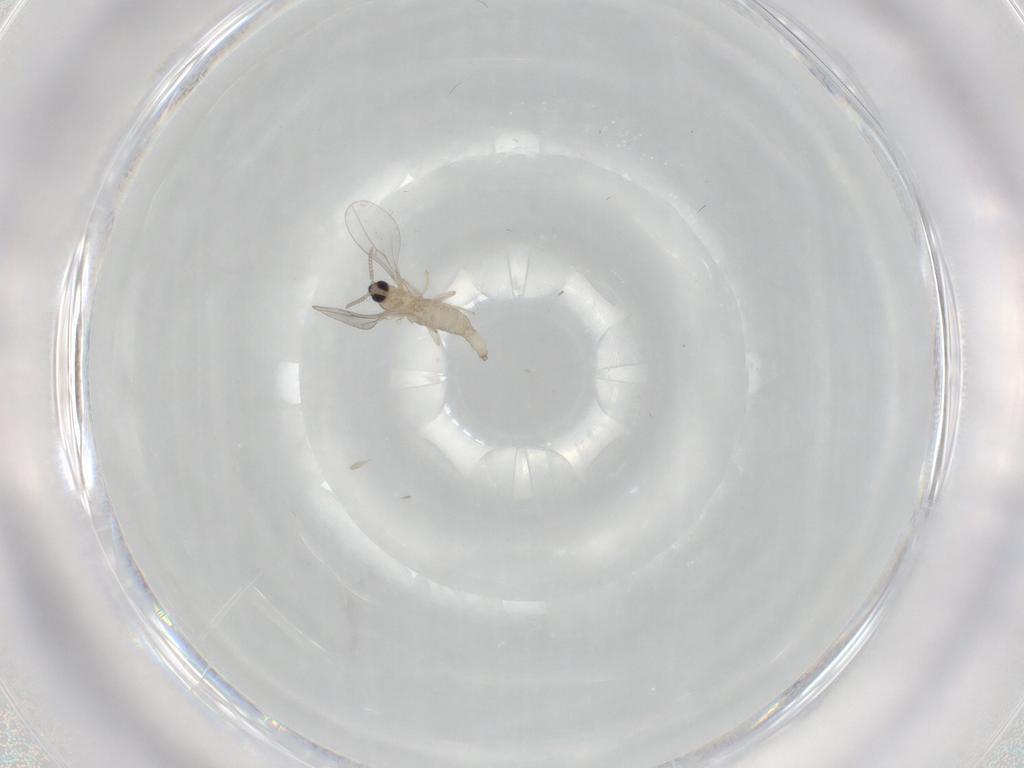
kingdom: Animalia
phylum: Arthropoda
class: Insecta
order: Diptera
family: Cecidomyiidae
